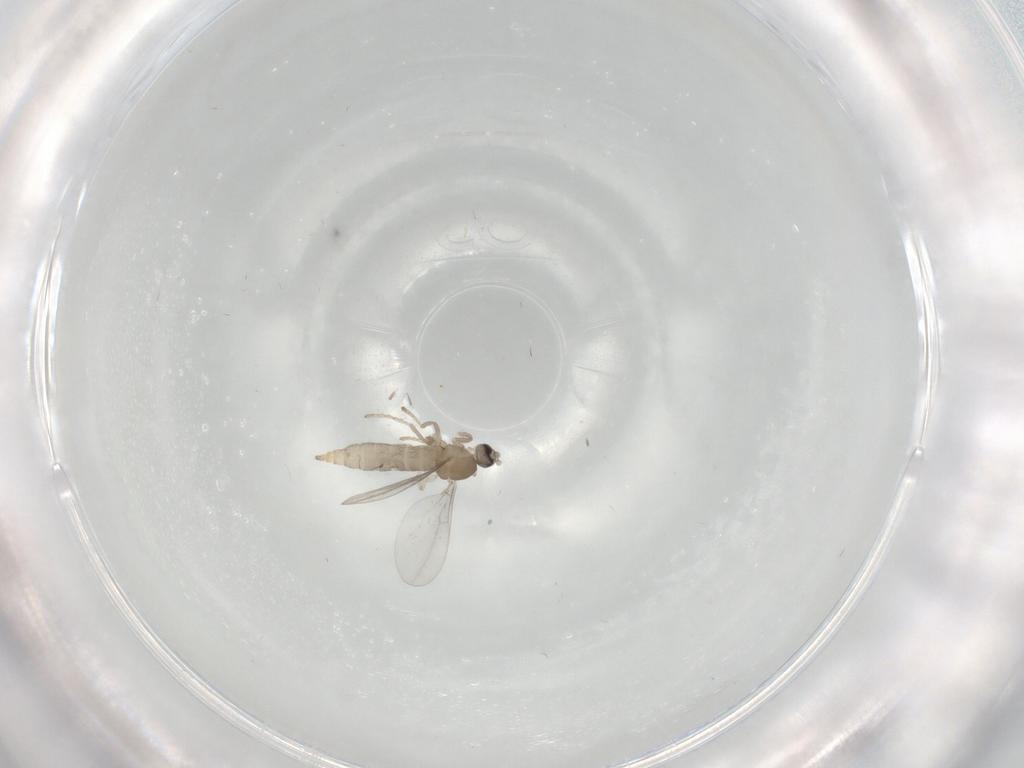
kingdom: Animalia
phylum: Arthropoda
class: Insecta
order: Diptera
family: Cecidomyiidae
